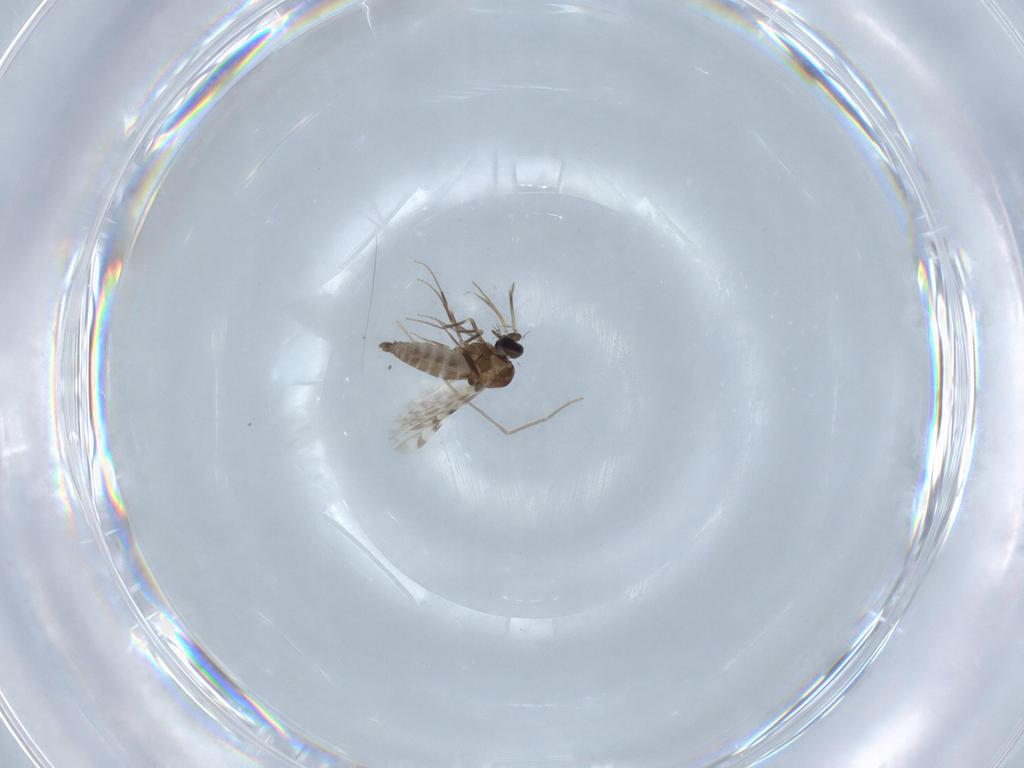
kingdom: Animalia
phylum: Arthropoda
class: Insecta
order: Diptera
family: Ceratopogonidae
